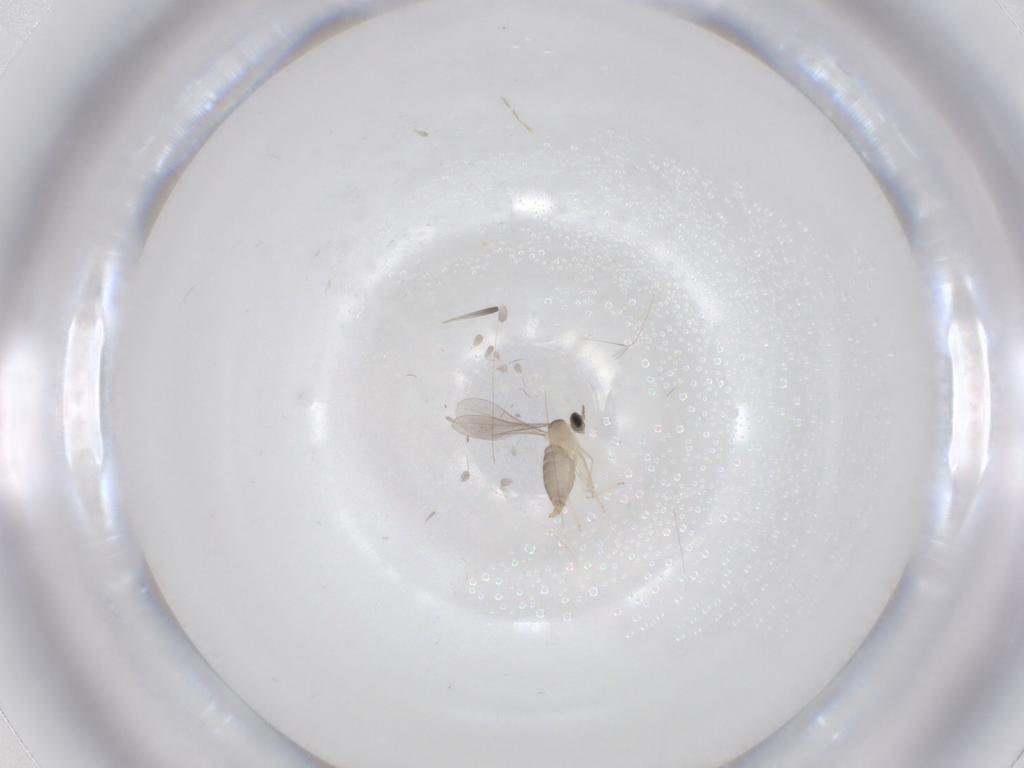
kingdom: Animalia
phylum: Arthropoda
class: Insecta
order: Diptera
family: Cecidomyiidae
